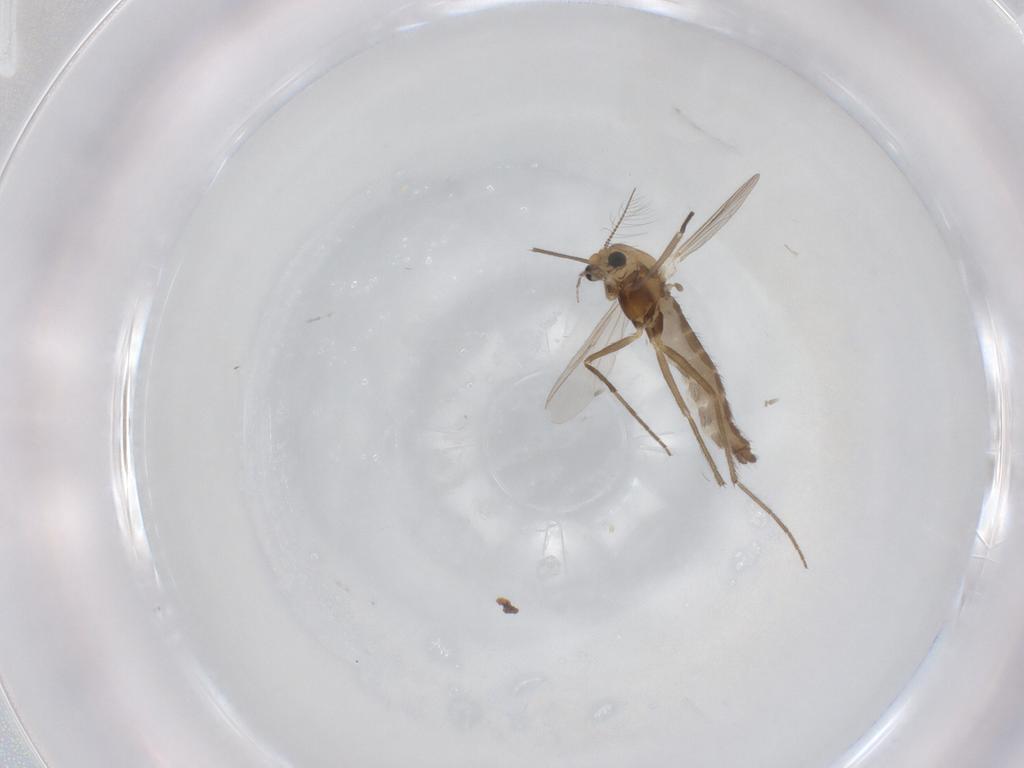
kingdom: Animalia
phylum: Arthropoda
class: Insecta
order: Diptera
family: Chironomidae
